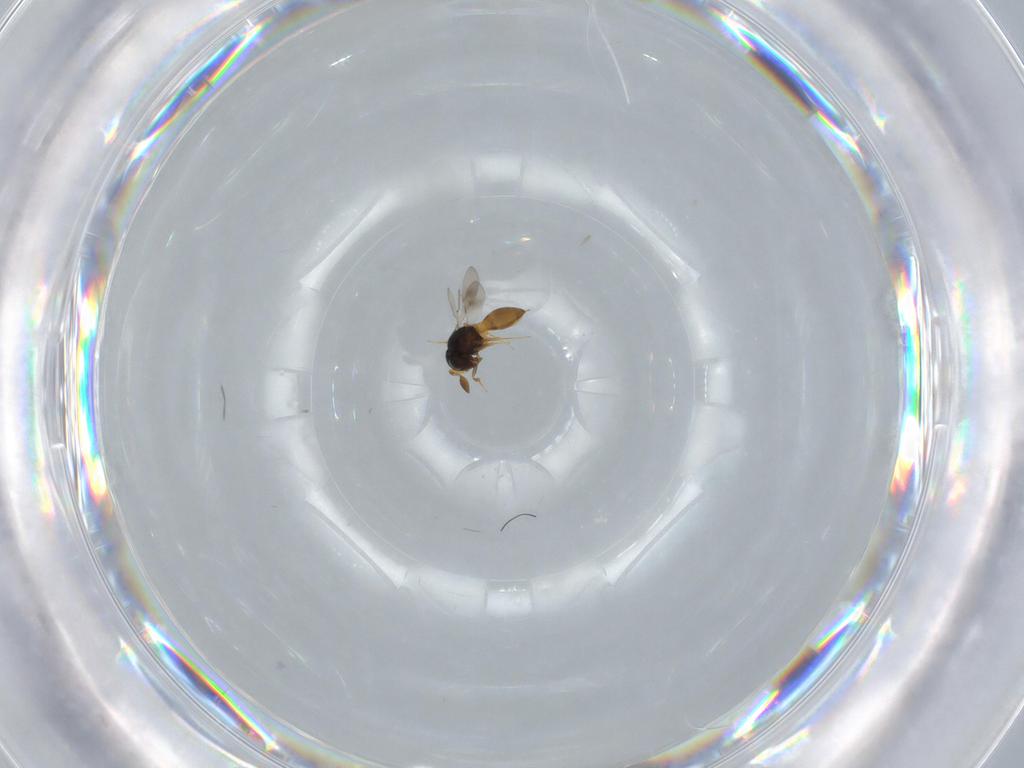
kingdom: Animalia
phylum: Arthropoda
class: Insecta
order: Hymenoptera
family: Scelionidae
